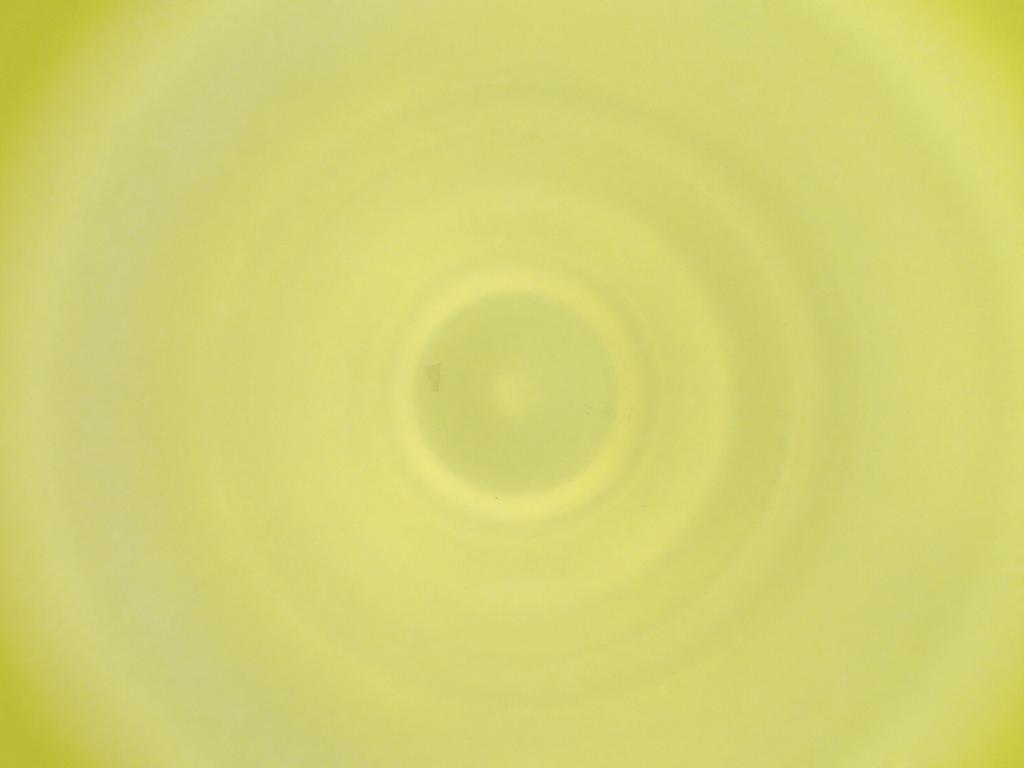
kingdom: Animalia
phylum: Arthropoda
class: Insecta
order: Diptera
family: Cecidomyiidae
